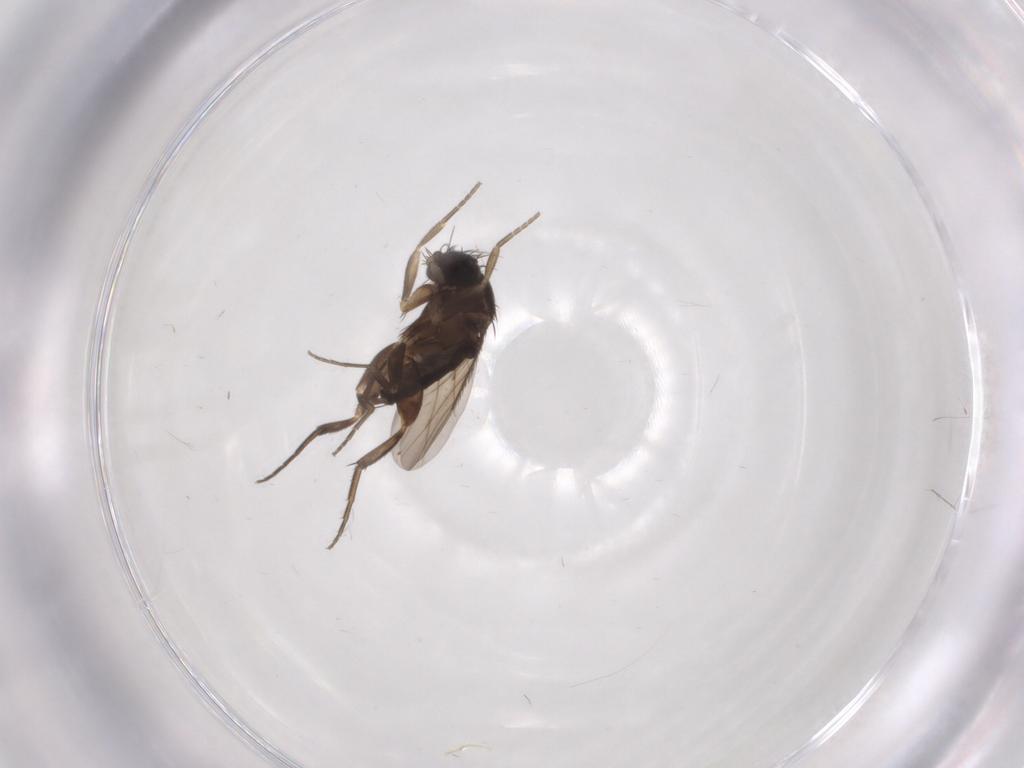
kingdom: Animalia
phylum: Arthropoda
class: Insecta
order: Diptera
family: Phoridae
